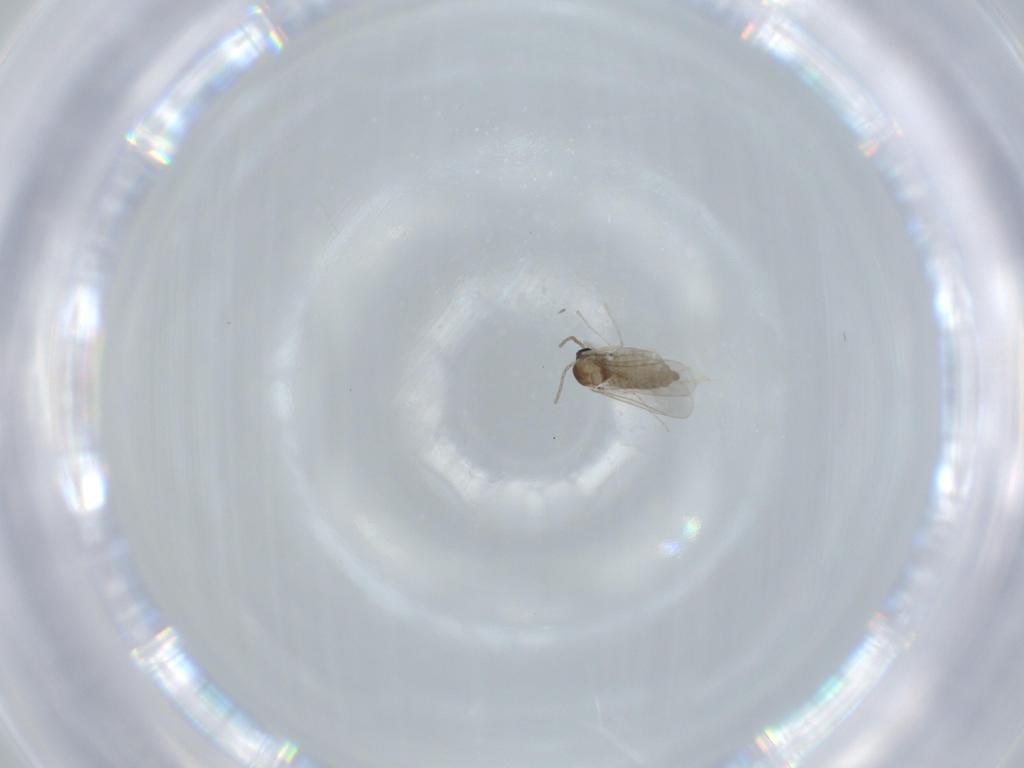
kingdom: Animalia
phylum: Arthropoda
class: Insecta
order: Diptera
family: Cecidomyiidae
